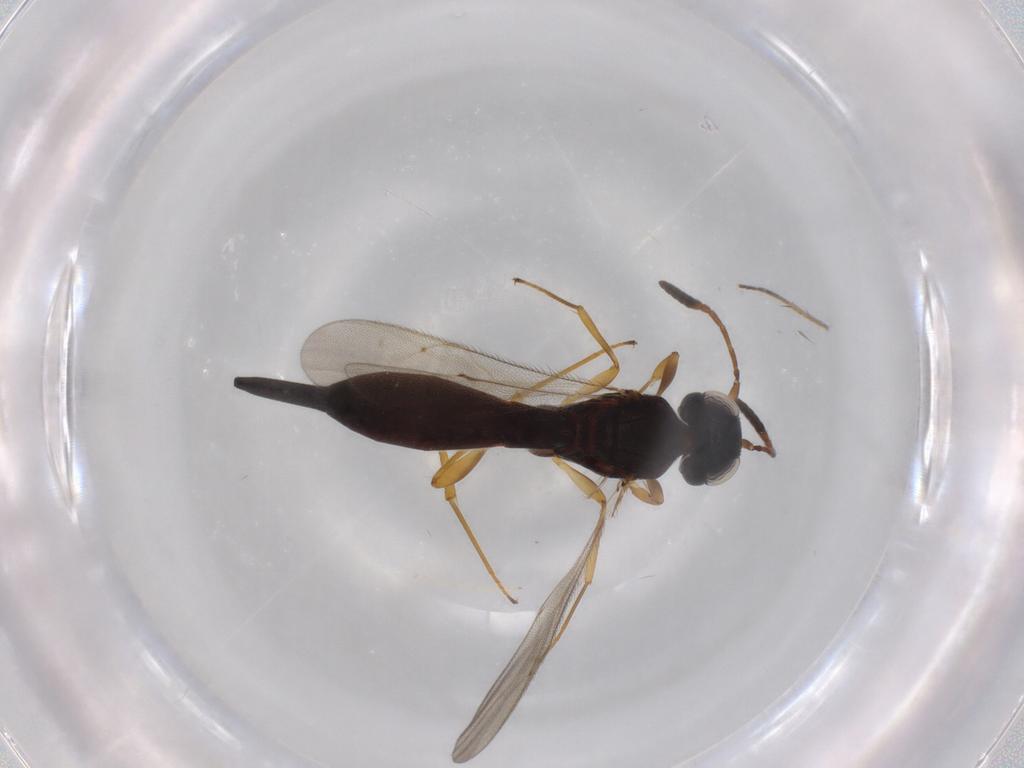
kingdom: Animalia
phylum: Arthropoda
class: Insecta
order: Hymenoptera
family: Scelionidae
